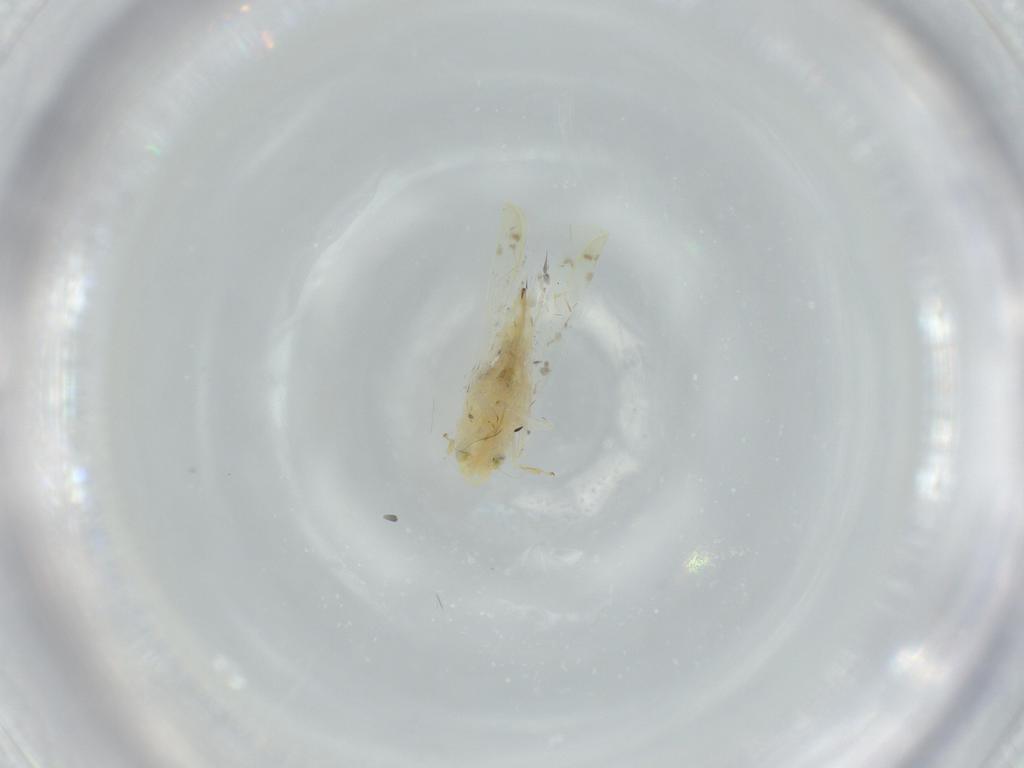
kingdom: Animalia
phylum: Arthropoda
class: Insecta
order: Hemiptera
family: Cicadellidae
